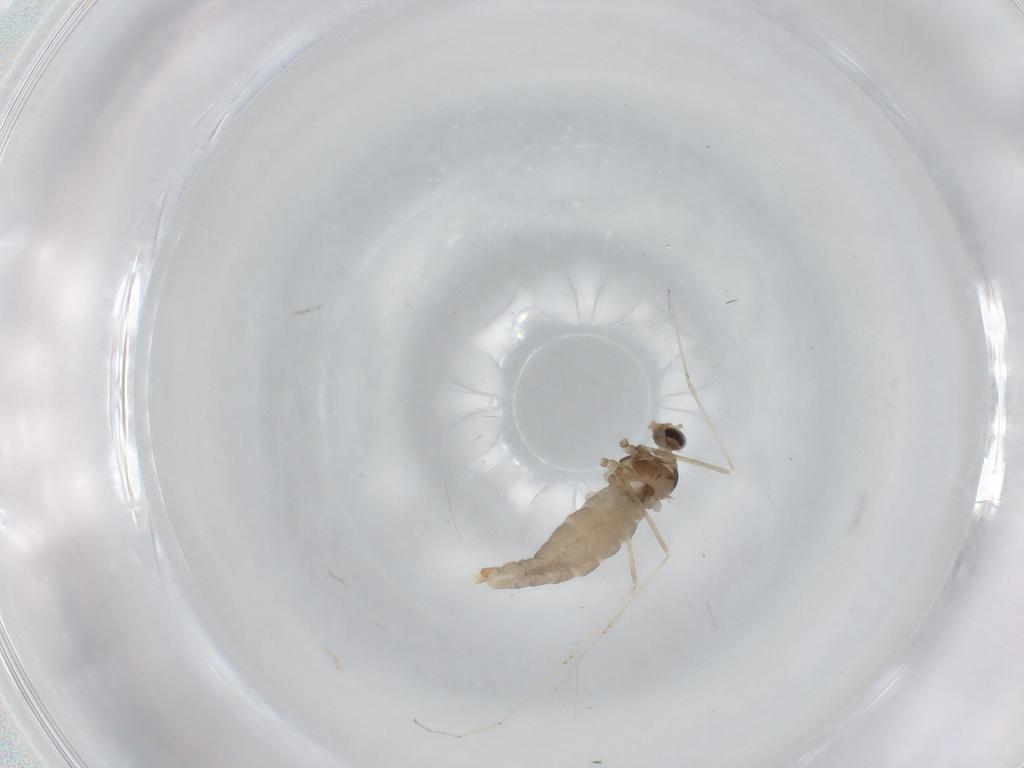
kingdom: Animalia
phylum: Arthropoda
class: Insecta
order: Diptera
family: Cecidomyiidae
